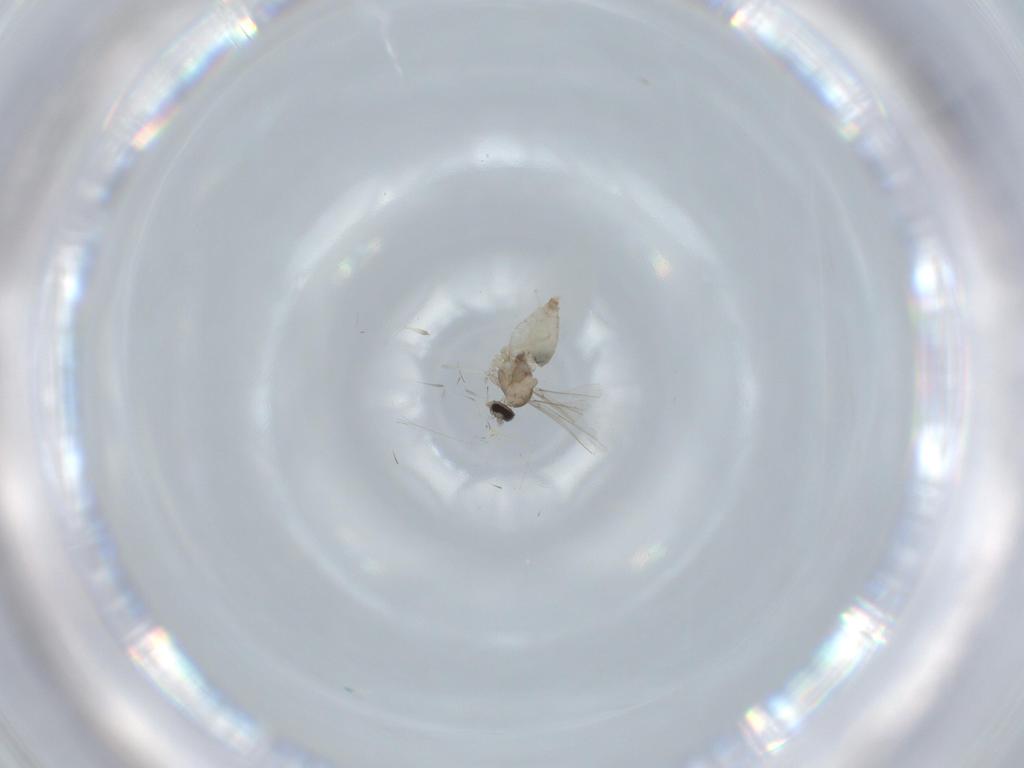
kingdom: Animalia
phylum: Arthropoda
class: Insecta
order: Diptera
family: Cecidomyiidae
